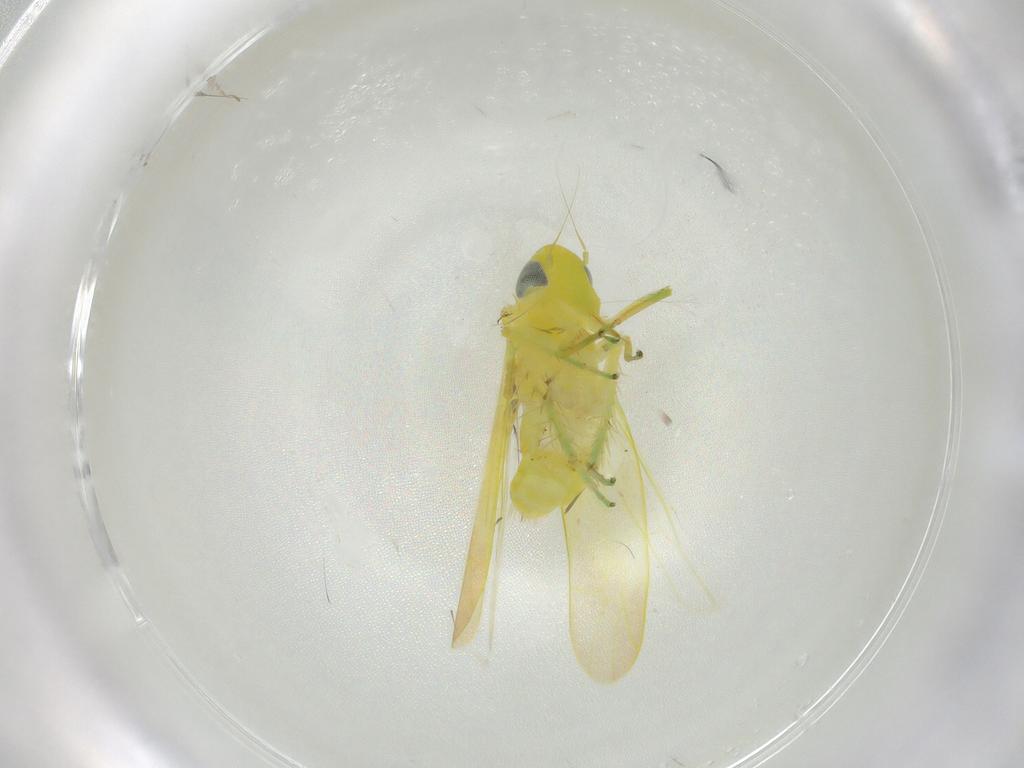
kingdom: Animalia
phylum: Arthropoda
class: Insecta
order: Hemiptera
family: Cicadellidae
